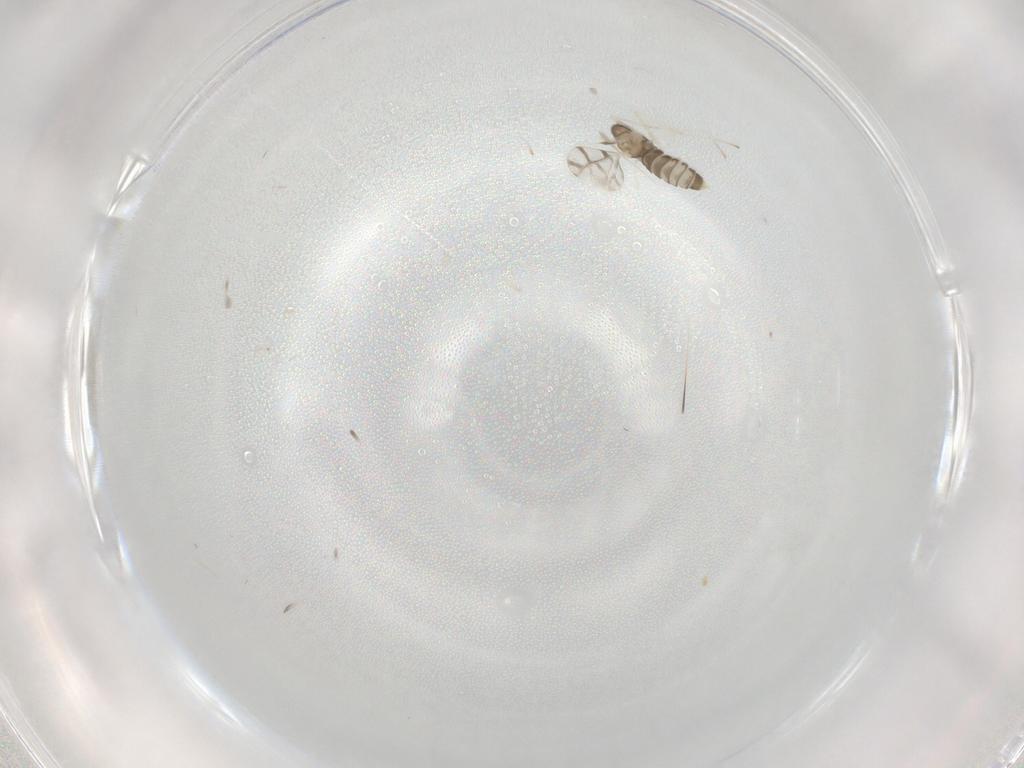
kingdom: Animalia
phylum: Arthropoda
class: Insecta
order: Diptera
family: Cecidomyiidae
